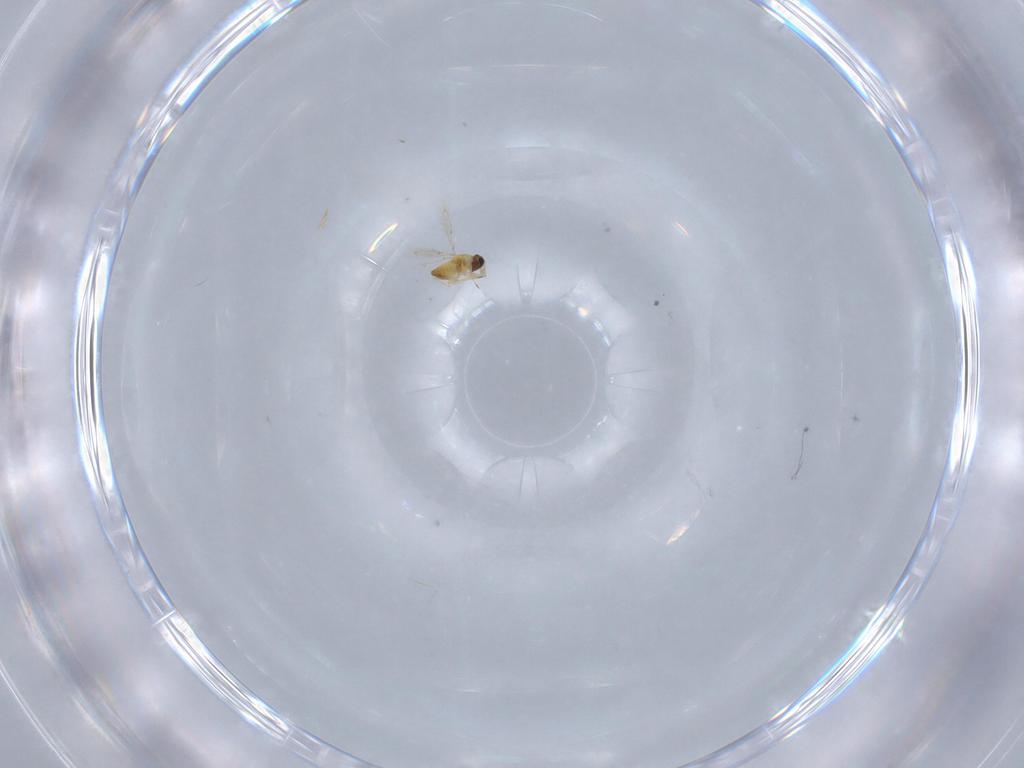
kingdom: Animalia
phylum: Arthropoda
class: Insecta
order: Hymenoptera
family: Trichogrammatidae
